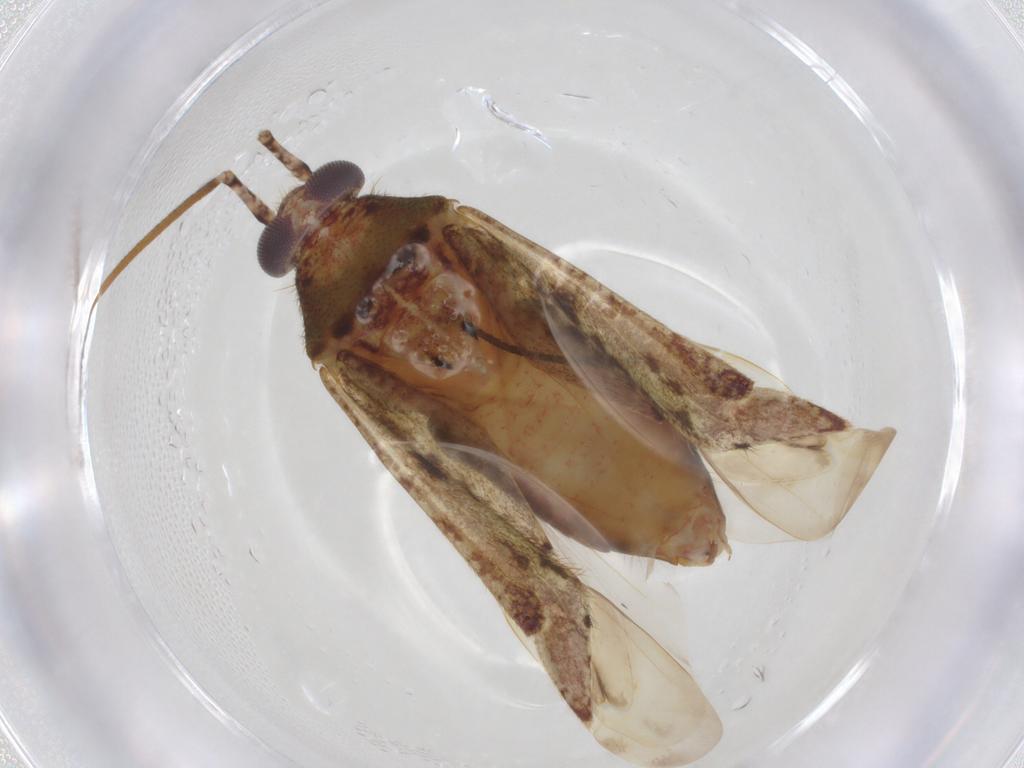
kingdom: Animalia
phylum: Arthropoda
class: Insecta
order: Hemiptera
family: Miridae
